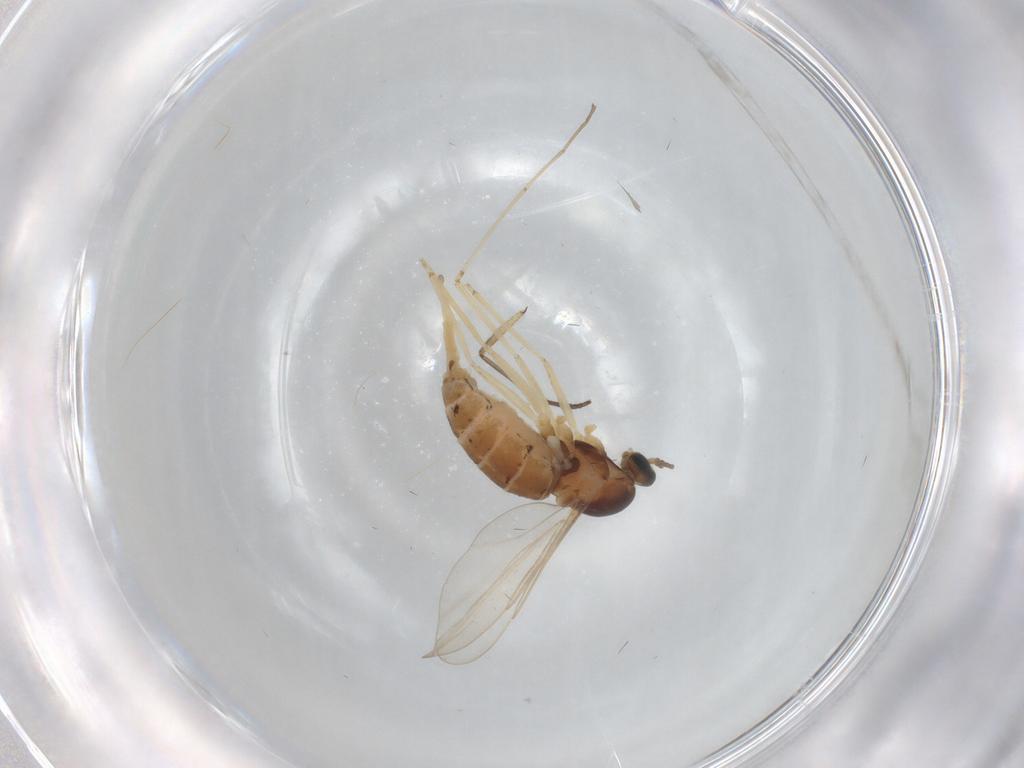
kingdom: Animalia
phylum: Arthropoda
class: Insecta
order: Diptera
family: Cecidomyiidae
